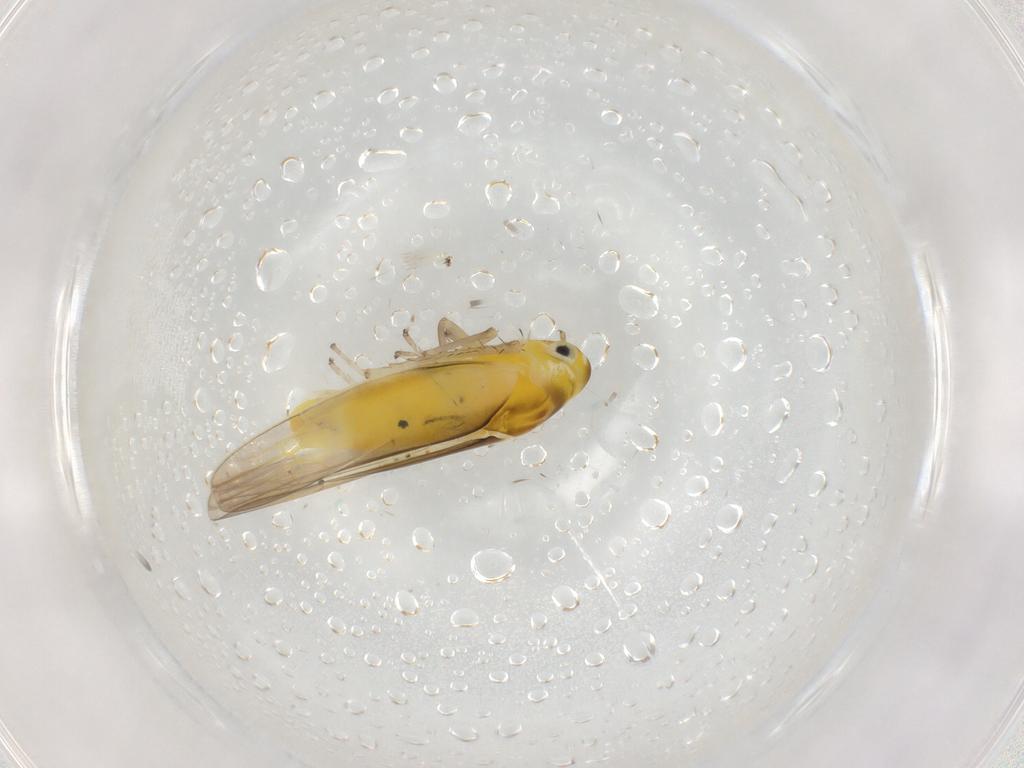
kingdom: Animalia
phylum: Arthropoda
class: Insecta
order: Hemiptera
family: Cicadellidae
